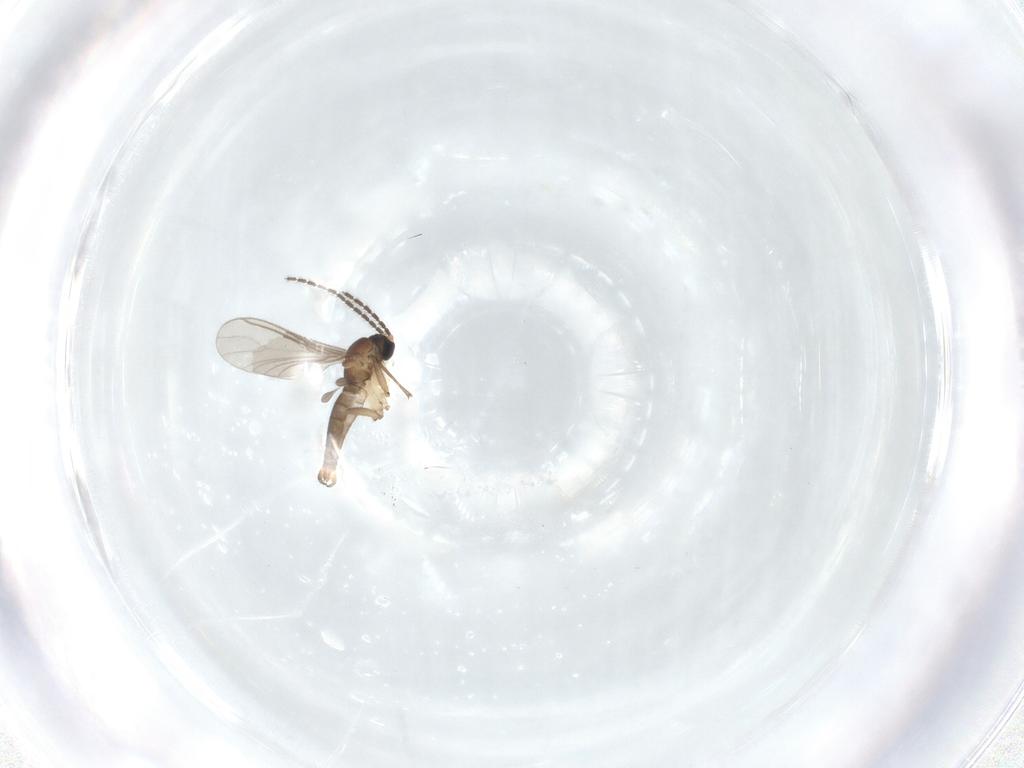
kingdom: Animalia
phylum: Arthropoda
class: Insecta
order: Diptera
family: Sciaridae
